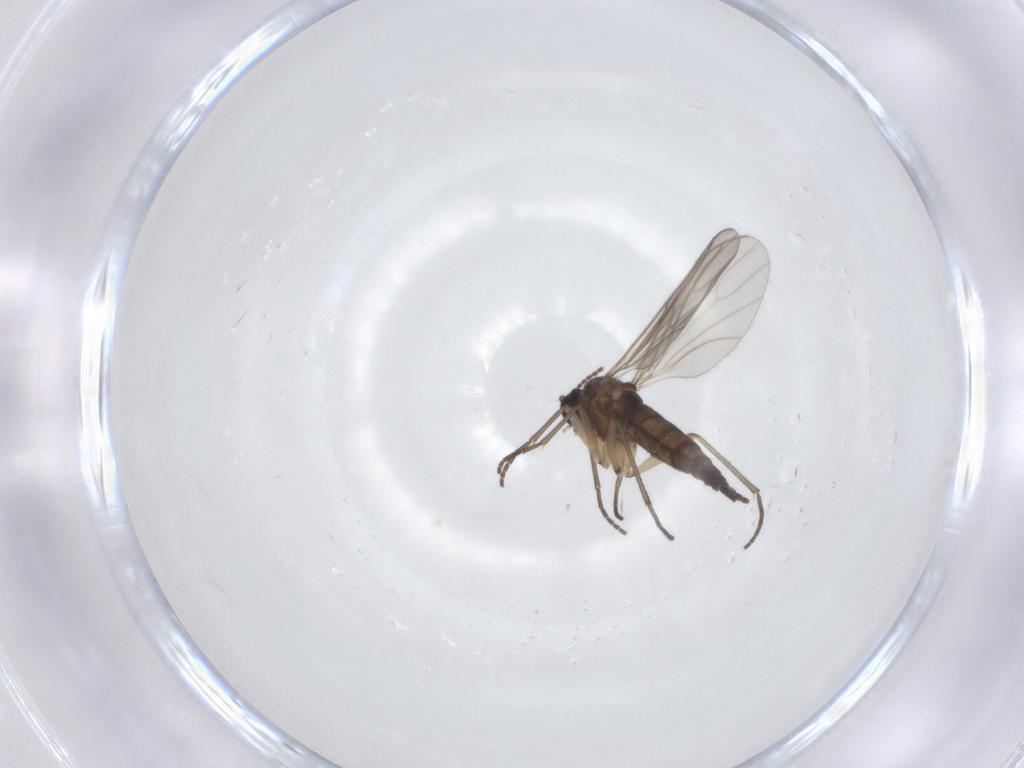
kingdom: Animalia
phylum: Arthropoda
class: Insecta
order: Diptera
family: Sciaridae
